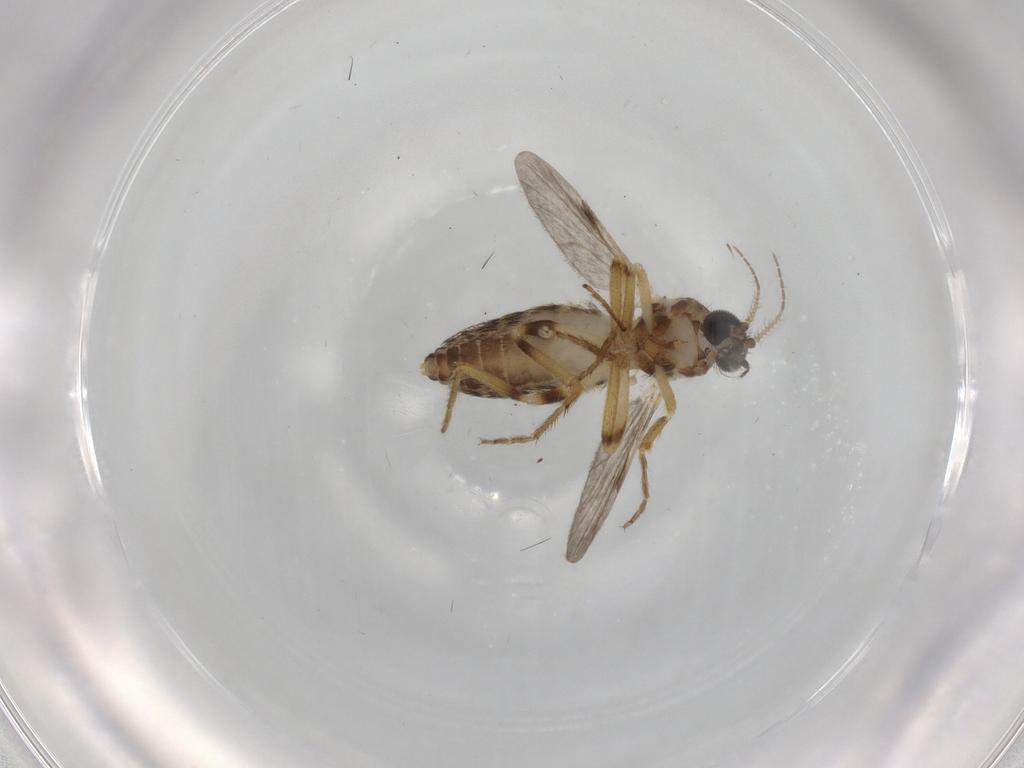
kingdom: Animalia
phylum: Arthropoda
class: Insecta
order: Diptera
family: Ceratopogonidae
